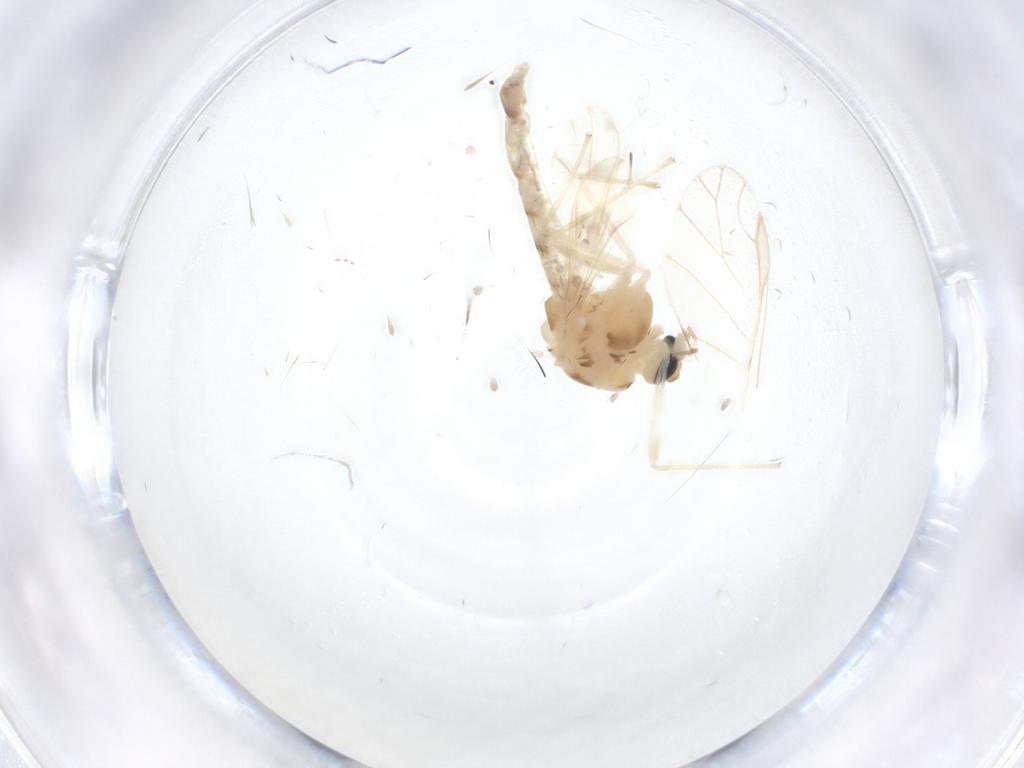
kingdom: Animalia
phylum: Arthropoda
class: Insecta
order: Diptera
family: Chironomidae
